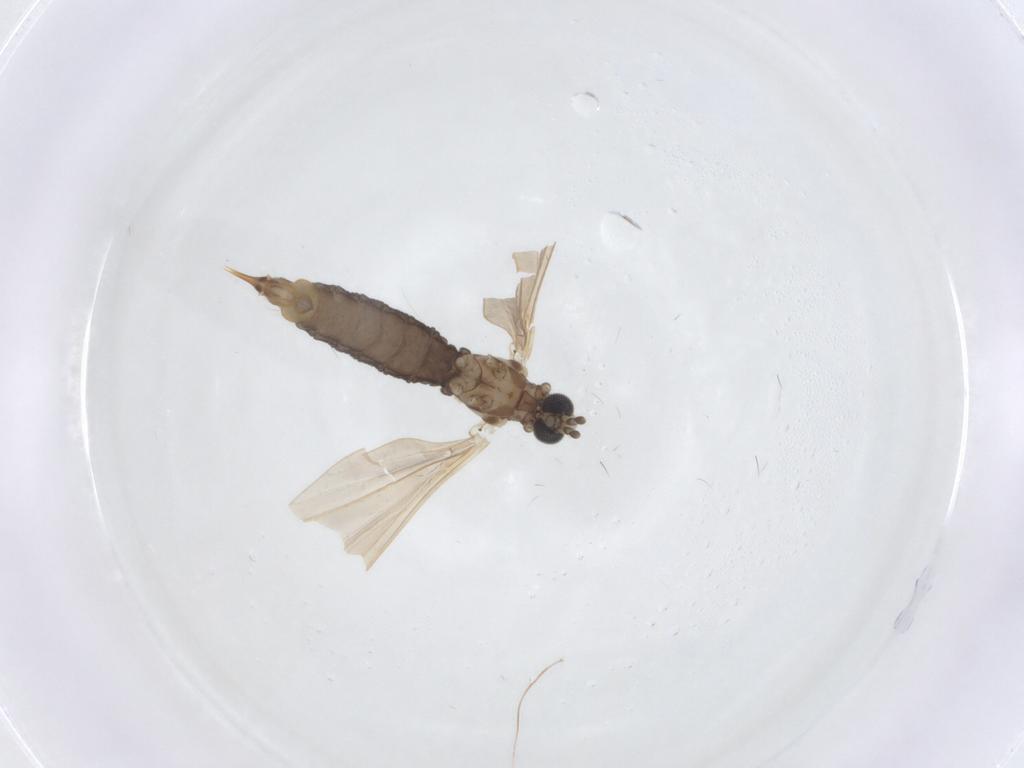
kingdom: Animalia
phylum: Arthropoda
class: Insecta
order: Diptera
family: Limoniidae
